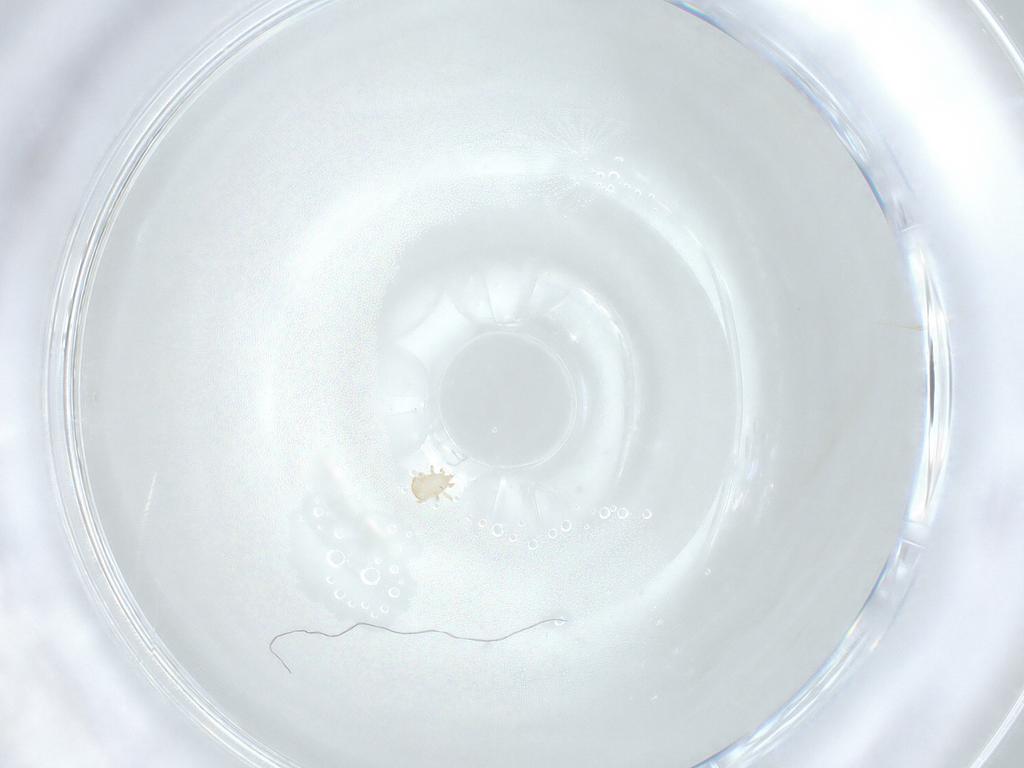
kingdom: Animalia
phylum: Arthropoda
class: Arachnida
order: Mesostigmata
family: Ascidae
